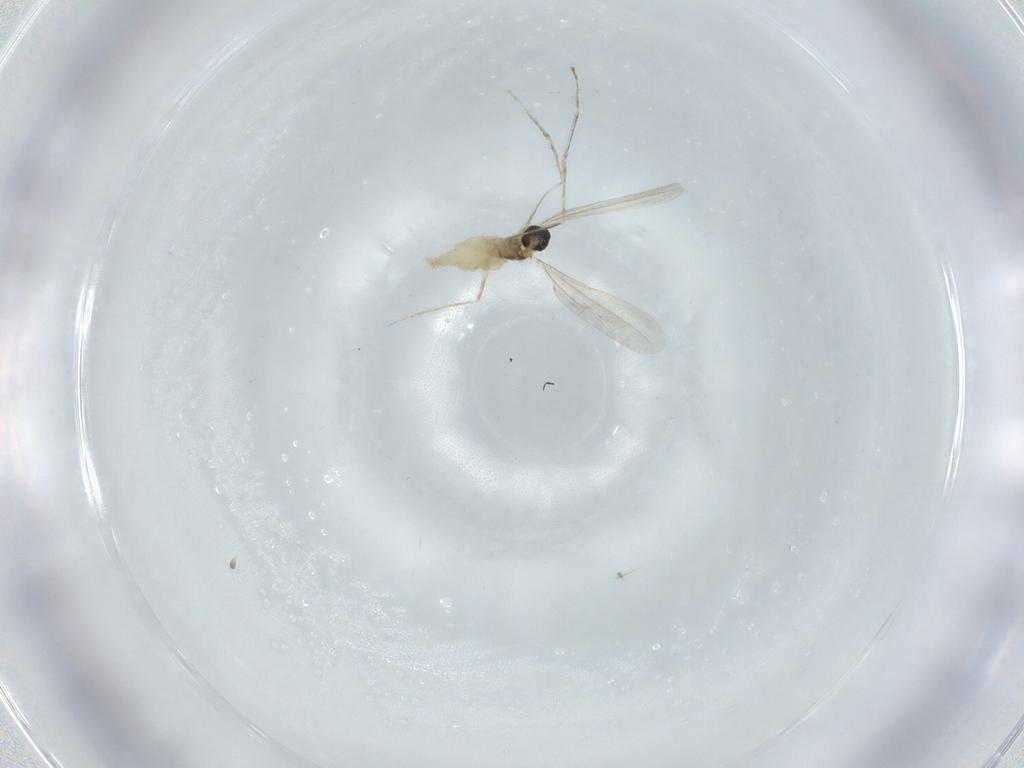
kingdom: Animalia
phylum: Arthropoda
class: Insecta
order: Diptera
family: Cecidomyiidae
